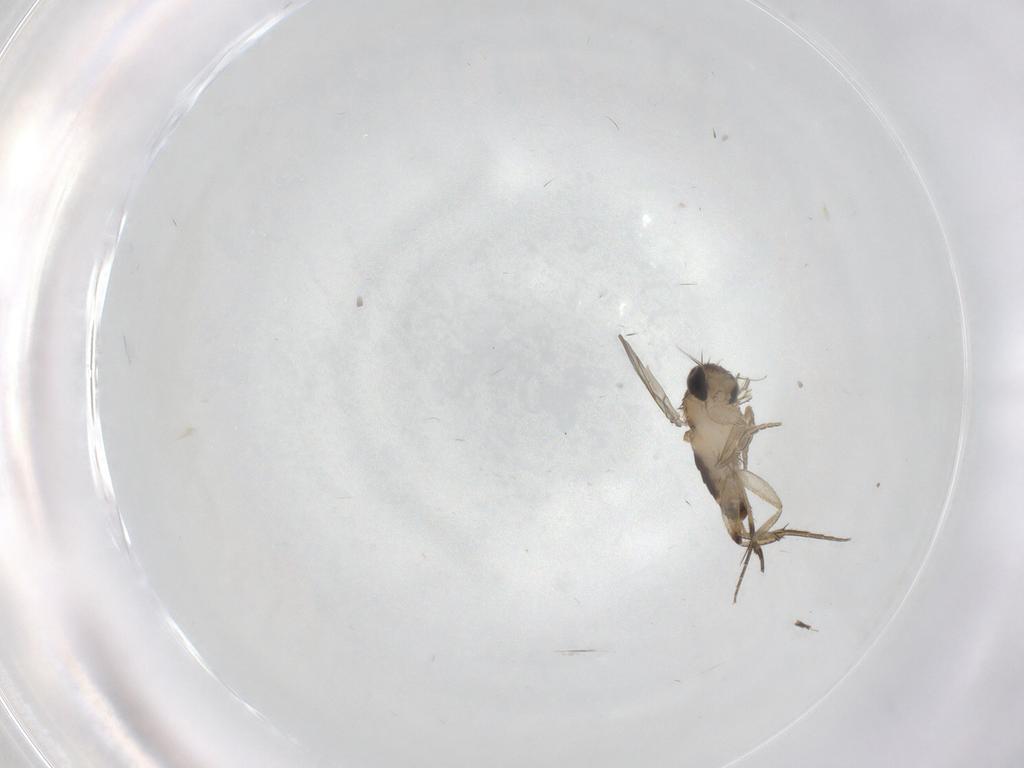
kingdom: Animalia
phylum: Arthropoda
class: Insecta
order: Diptera
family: Phoridae
